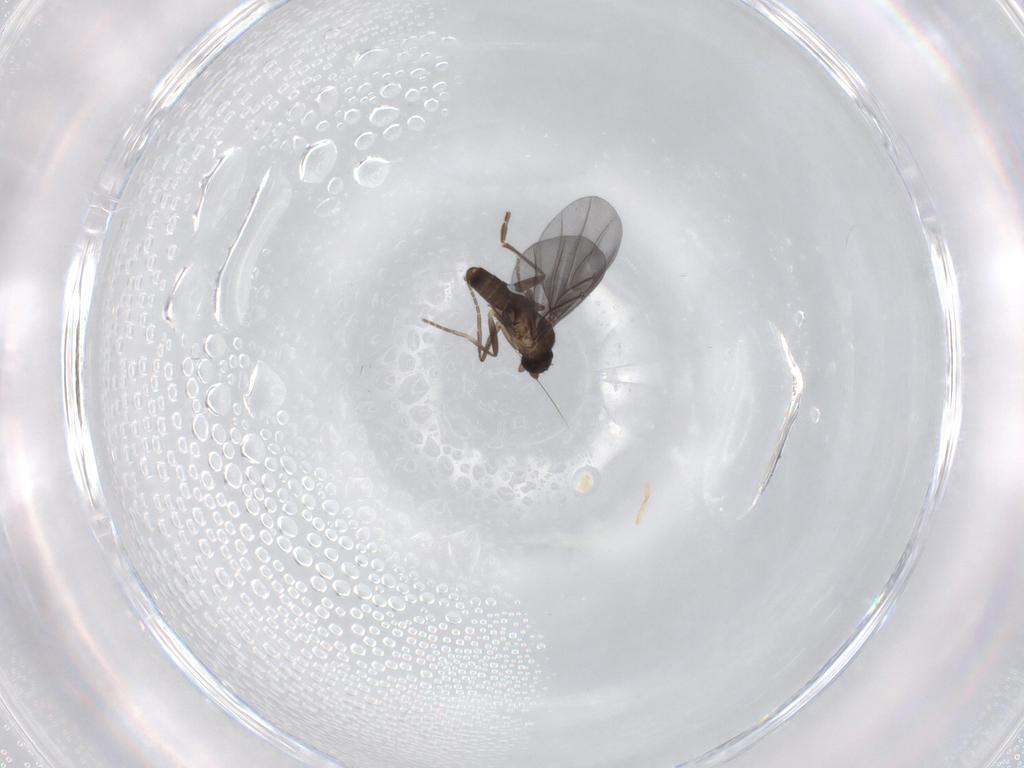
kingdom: Animalia
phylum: Arthropoda
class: Insecta
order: Diptera
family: Phoridae
